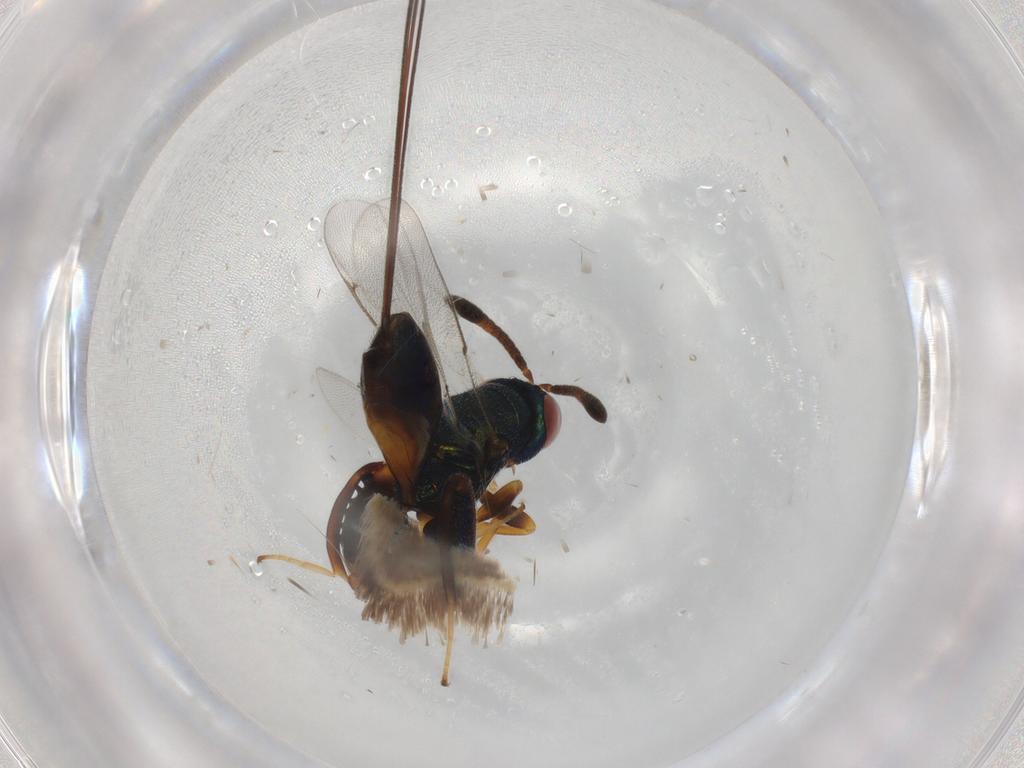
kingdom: Animalia
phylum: Arthropoda
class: Insecta
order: Hymenoptera
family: Torymidae
